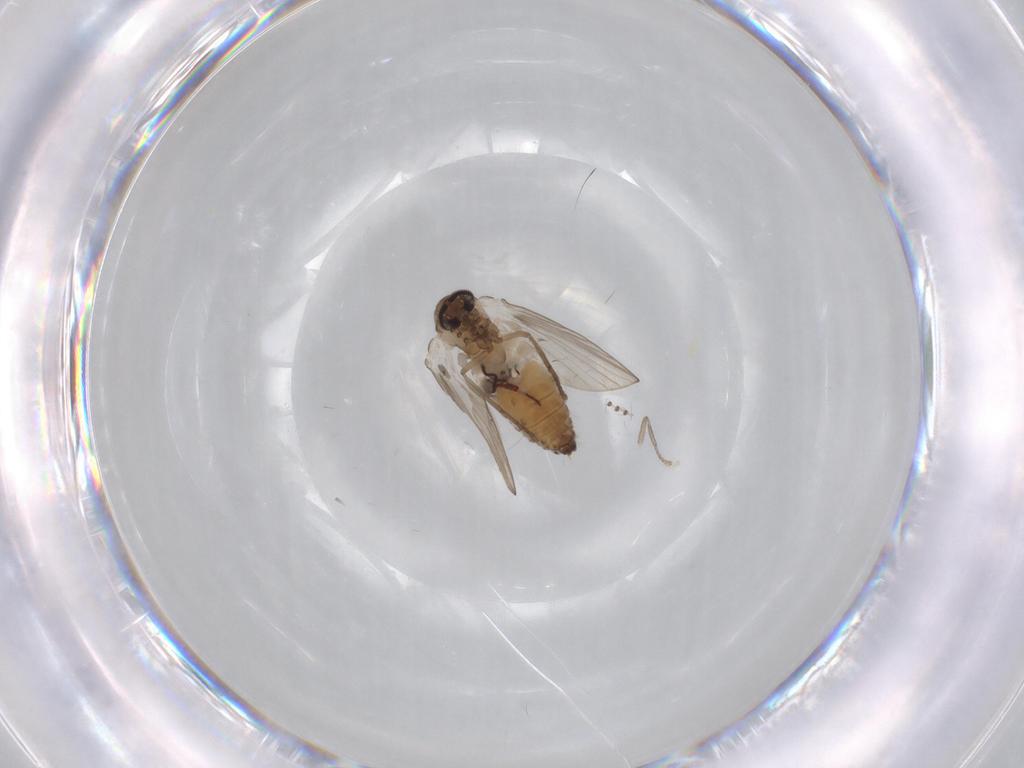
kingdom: Animalia
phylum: Arthropoda
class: Insecta
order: Diptera
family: Psychodidae
